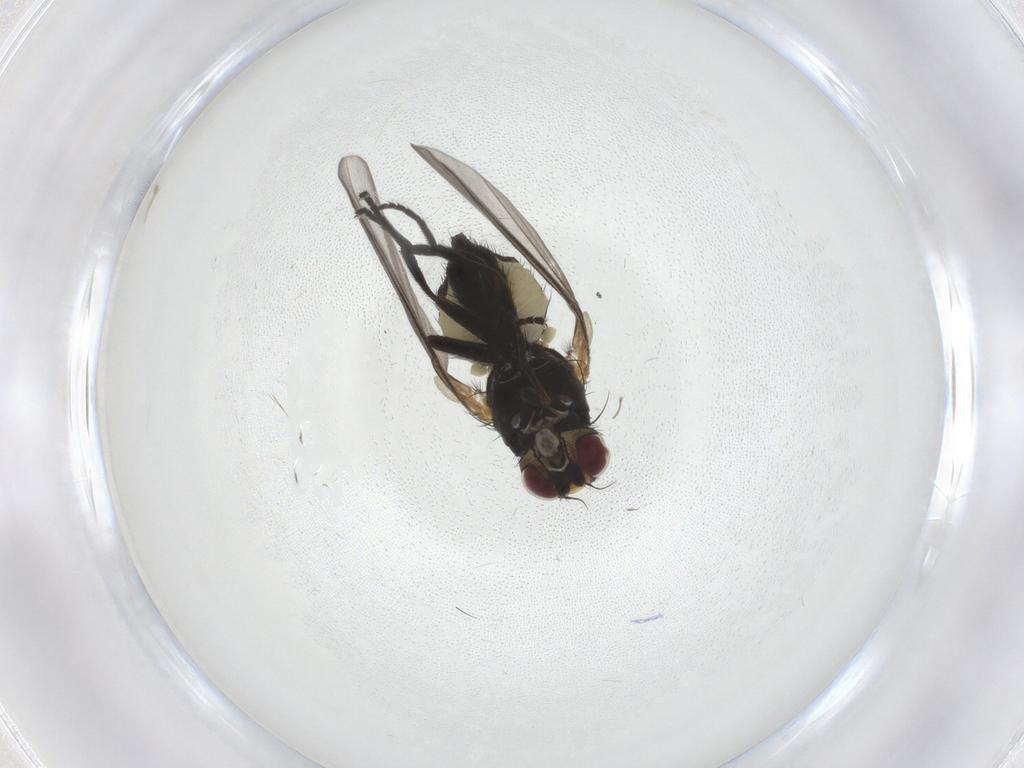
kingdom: Animalia
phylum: Arthropoda
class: Insecta
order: Diptera
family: Agromyzidae
